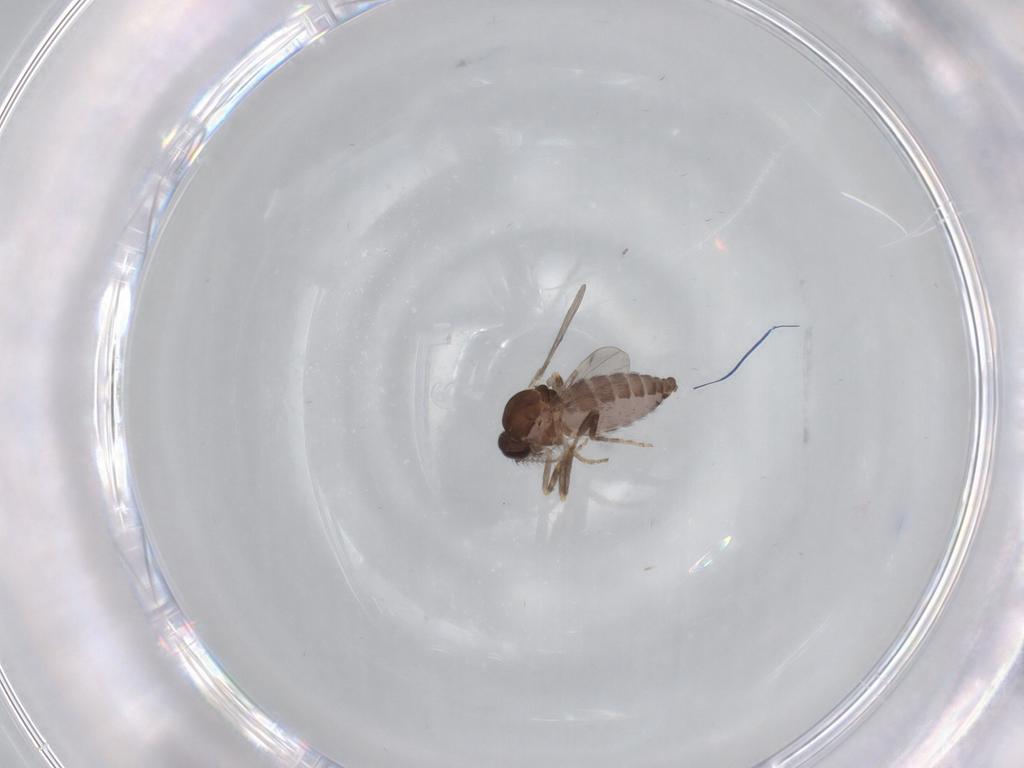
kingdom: Animalia
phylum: Arthropoda
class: Insecta
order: Diptera
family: Ceratopogonidae
